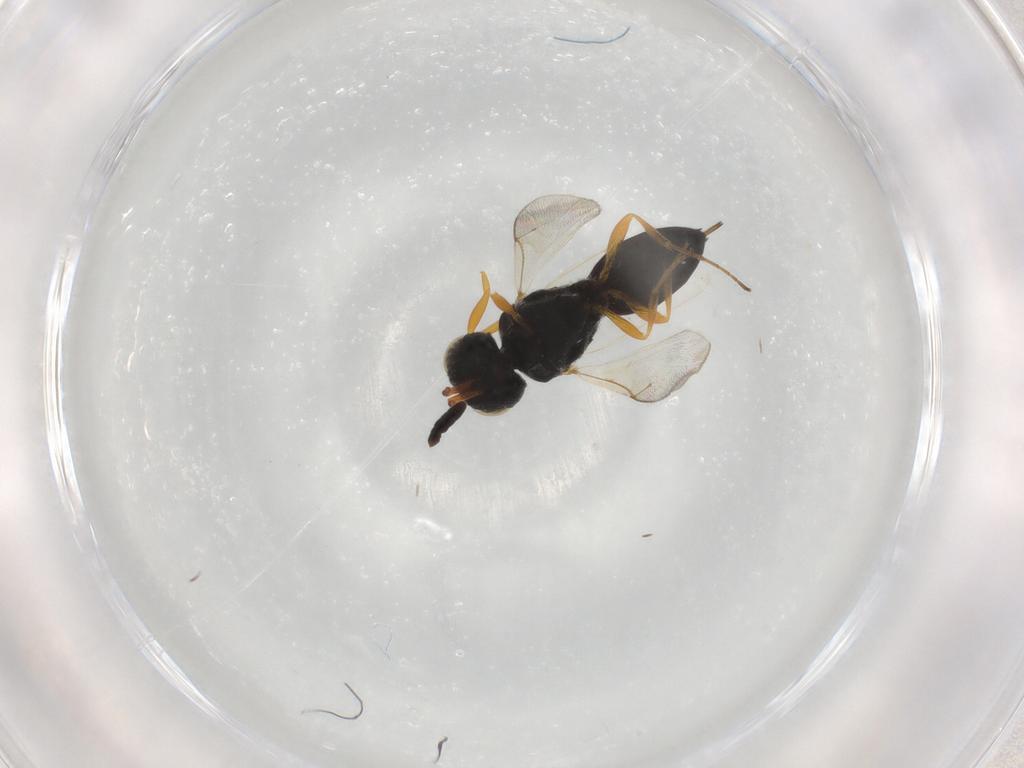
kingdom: Animalia
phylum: Arthropoda
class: Insecta
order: Hymenoptera
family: Scelionidae
